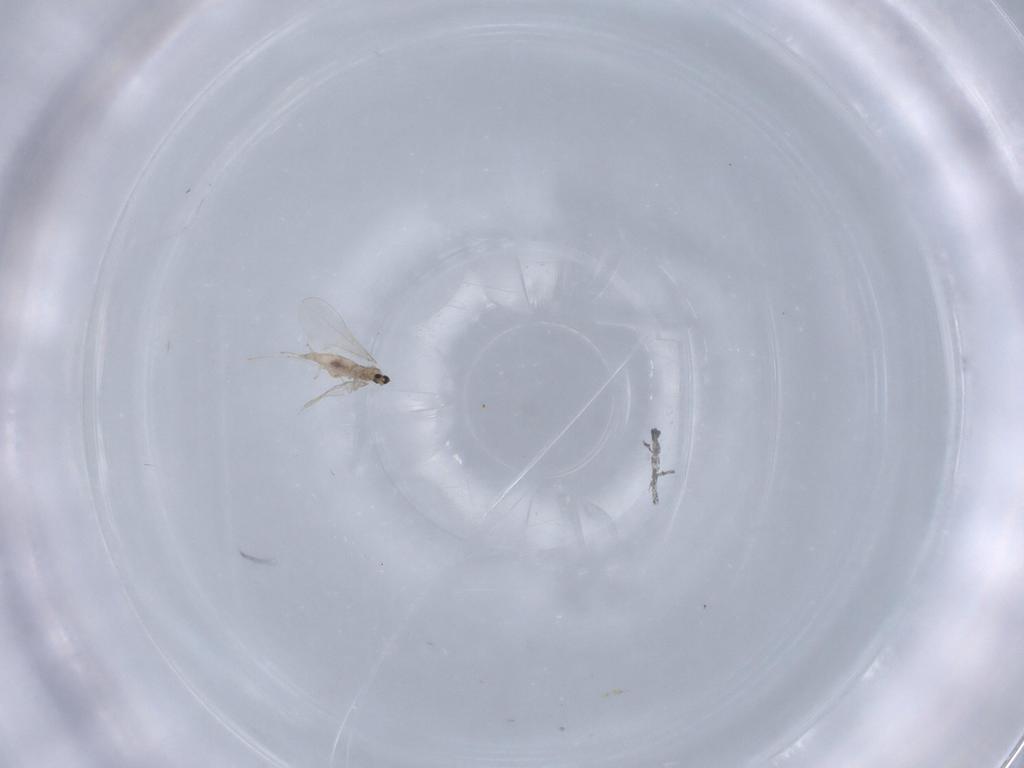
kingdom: Animalia
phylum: Arthropoda
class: Insecta
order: Diptera
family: Cecidomyiidae
